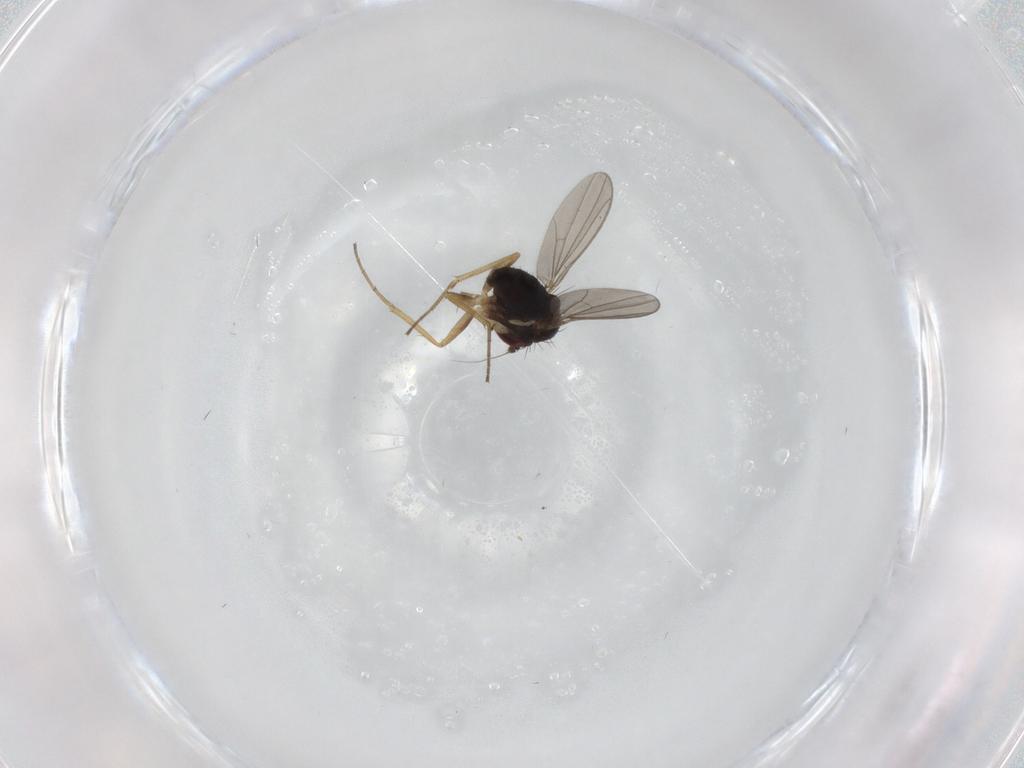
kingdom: Animalia
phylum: Arthropoda
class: Insecta
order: Diptera
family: Dolichopodidae
